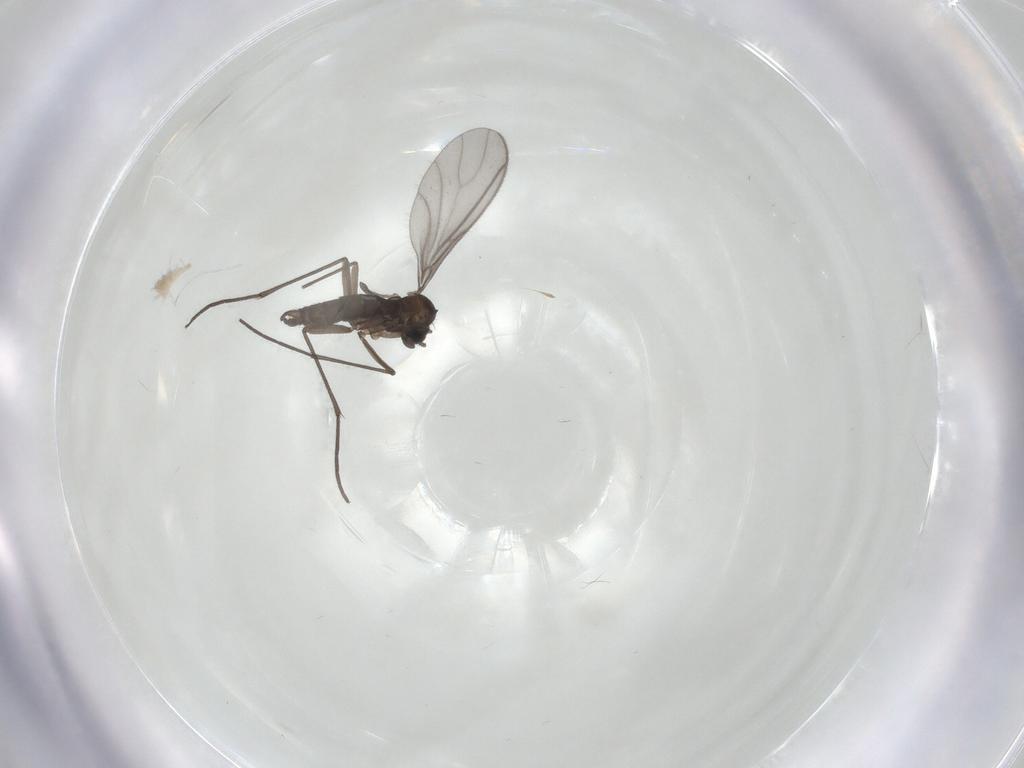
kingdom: Animalia
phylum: Arthropoda
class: Insecta
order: Diptera
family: Sciaridae
